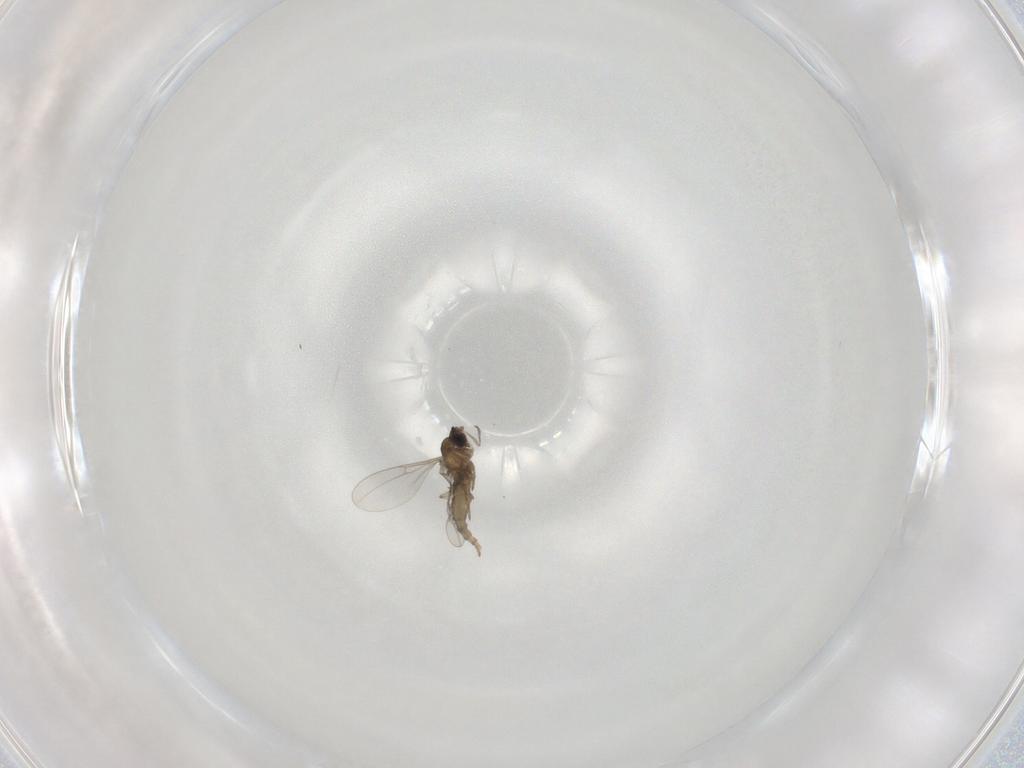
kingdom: Animalia
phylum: Arthropoda
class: Insecta
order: Diptera
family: Cecidomyiidae
